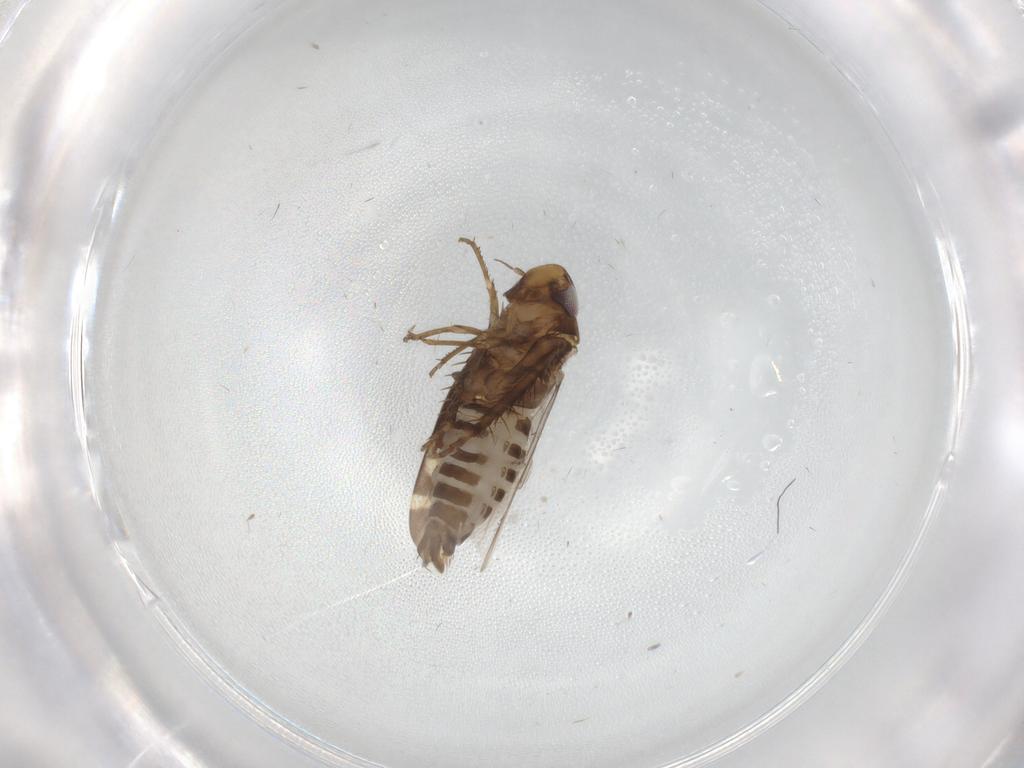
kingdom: Animalia
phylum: Arthropoda
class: Insecta
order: Hemiptera
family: Cicadellidae
